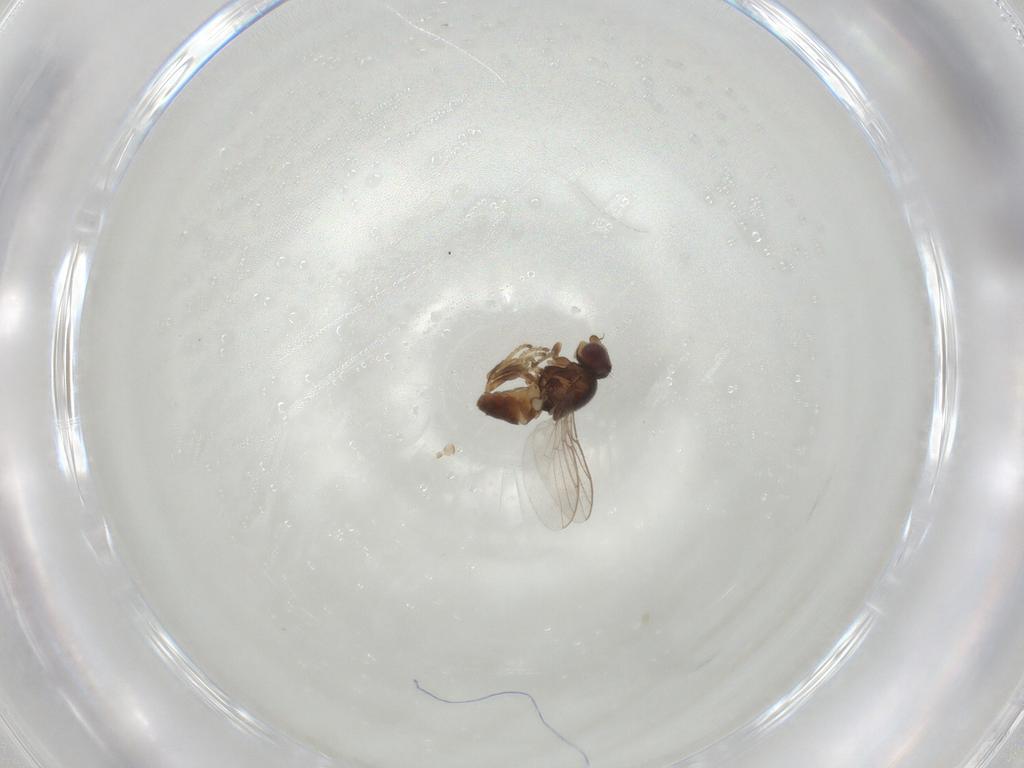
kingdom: Animalia
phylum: Arthropoda
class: Insecta
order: Diptera
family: Chloropidae
